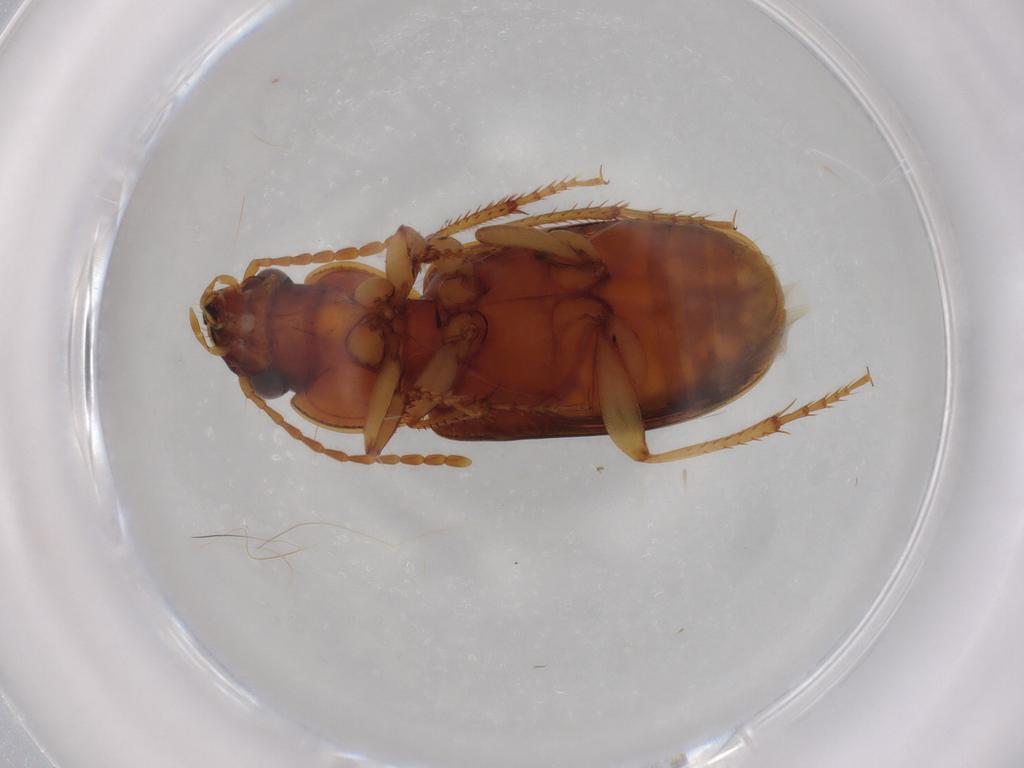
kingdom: Animalia
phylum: Arthropoda
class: Insecta
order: Coleoptera
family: Carabidae
